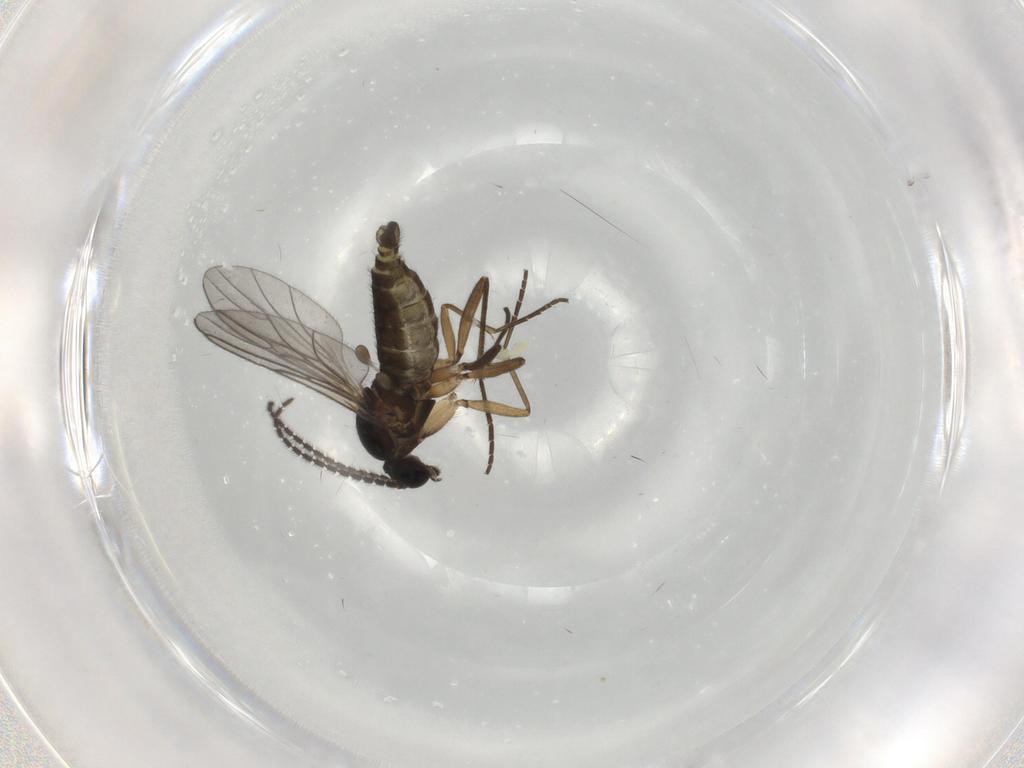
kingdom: Animalia
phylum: Arthropoda
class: Insecta
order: Diptera
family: Sciaridae
